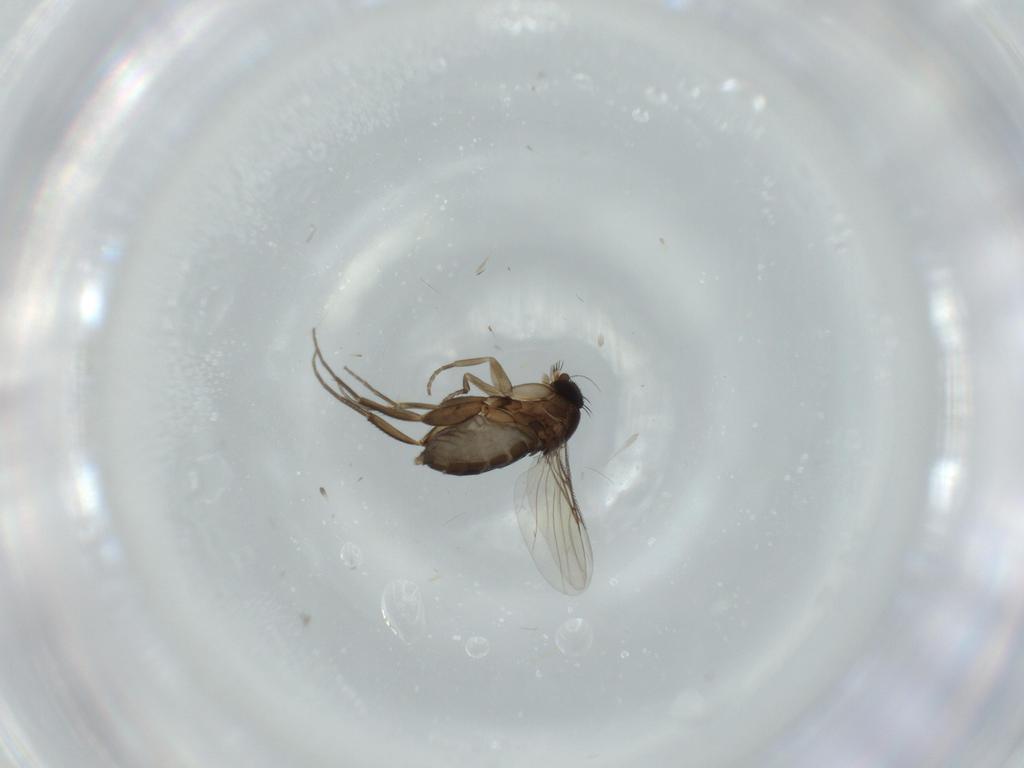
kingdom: Animalia
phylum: Arthropoda
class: Insecta
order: Diptera
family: Phoridae
